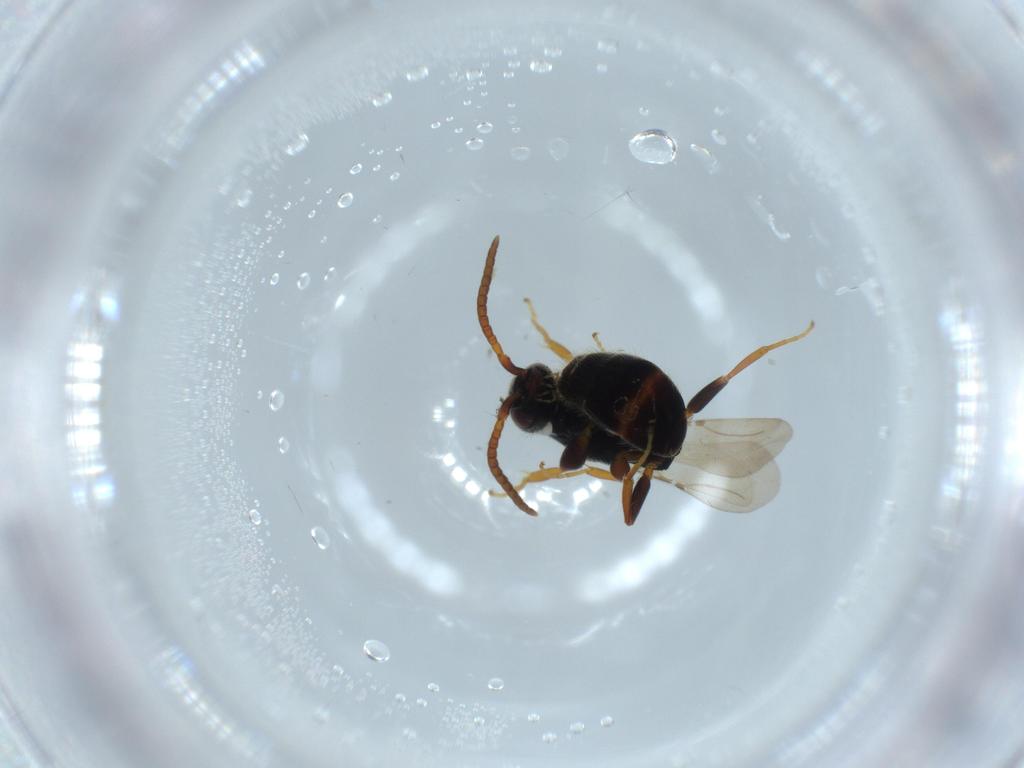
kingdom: Animalia
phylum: Arthropoda
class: Insecta
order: Hymenoptera
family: Bethylidae
